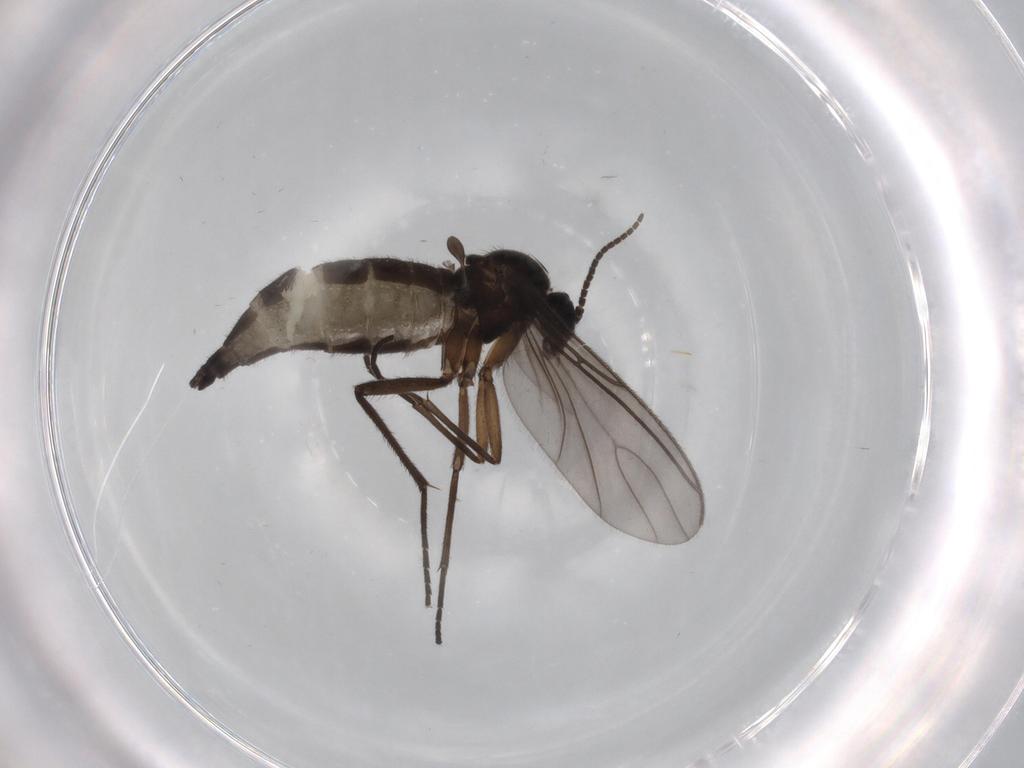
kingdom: Animalia
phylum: Arthropoda
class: Insecta
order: Diptera
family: Sciaridae
